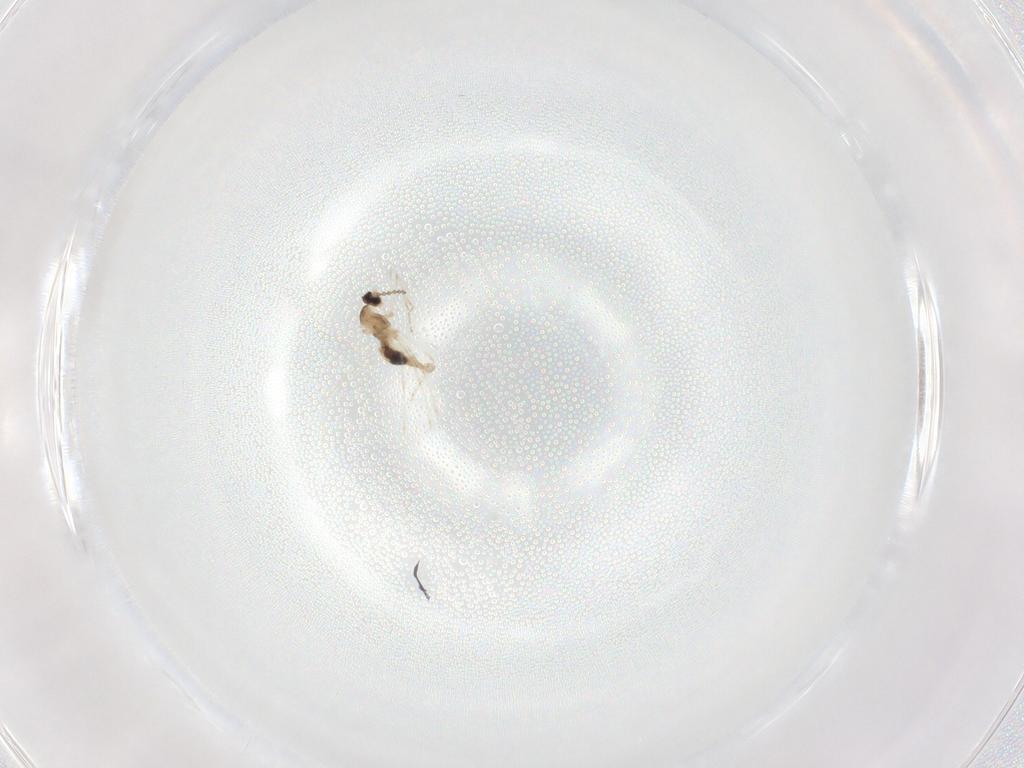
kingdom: Animalia
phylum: Arthropoda
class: Insecta
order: Diptera
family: Cecidomyiidae
